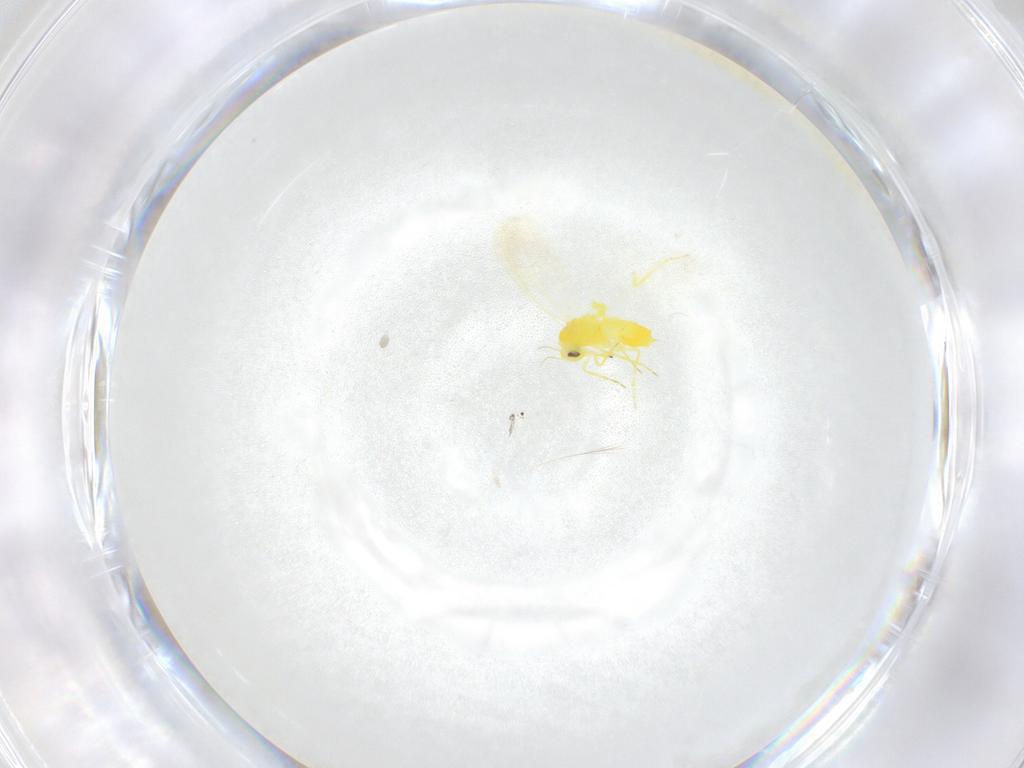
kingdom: Animalia
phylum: Arthropoda
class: Insecta
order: Hemiptera
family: Aleyrodidae
